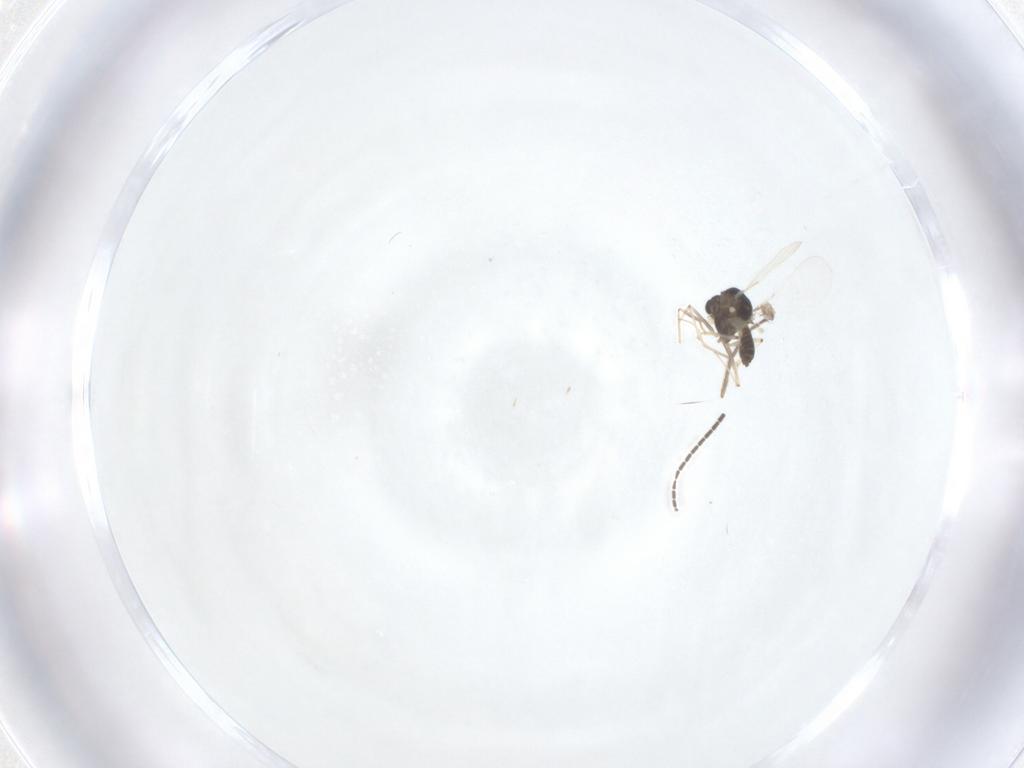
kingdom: Animalia
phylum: Arthropoda
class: Insecta
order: Diptera
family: Chironomidae
